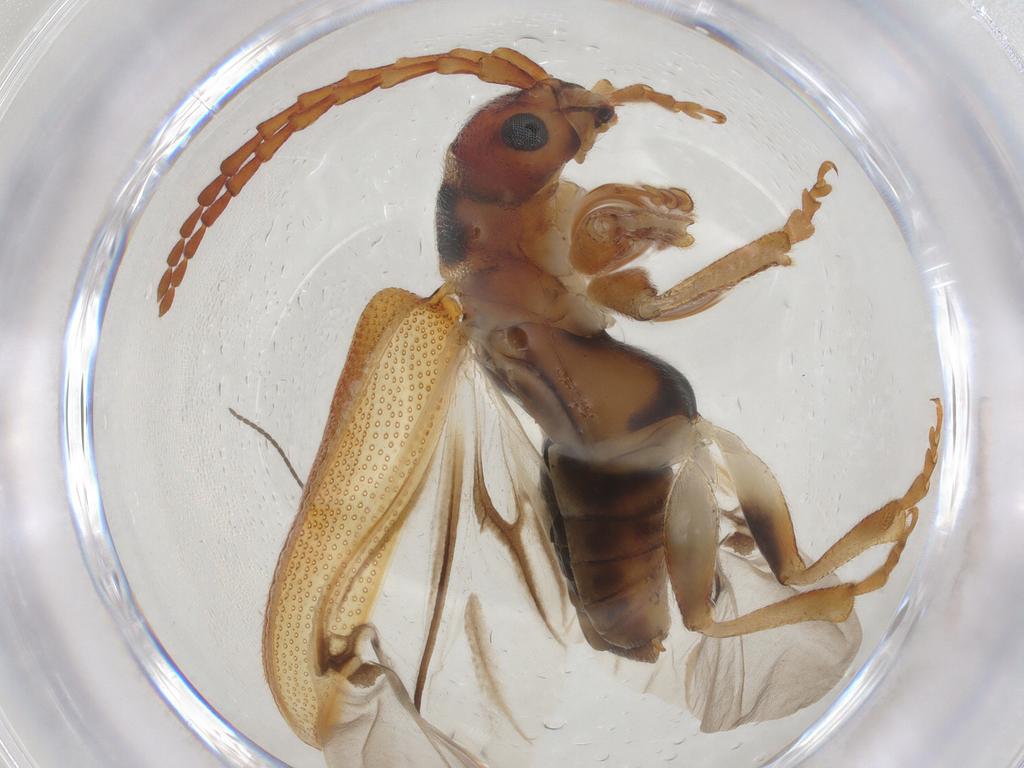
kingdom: Animalia
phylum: Arthropoda
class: Insecta
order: Coleoptera
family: Chrysomelidae
